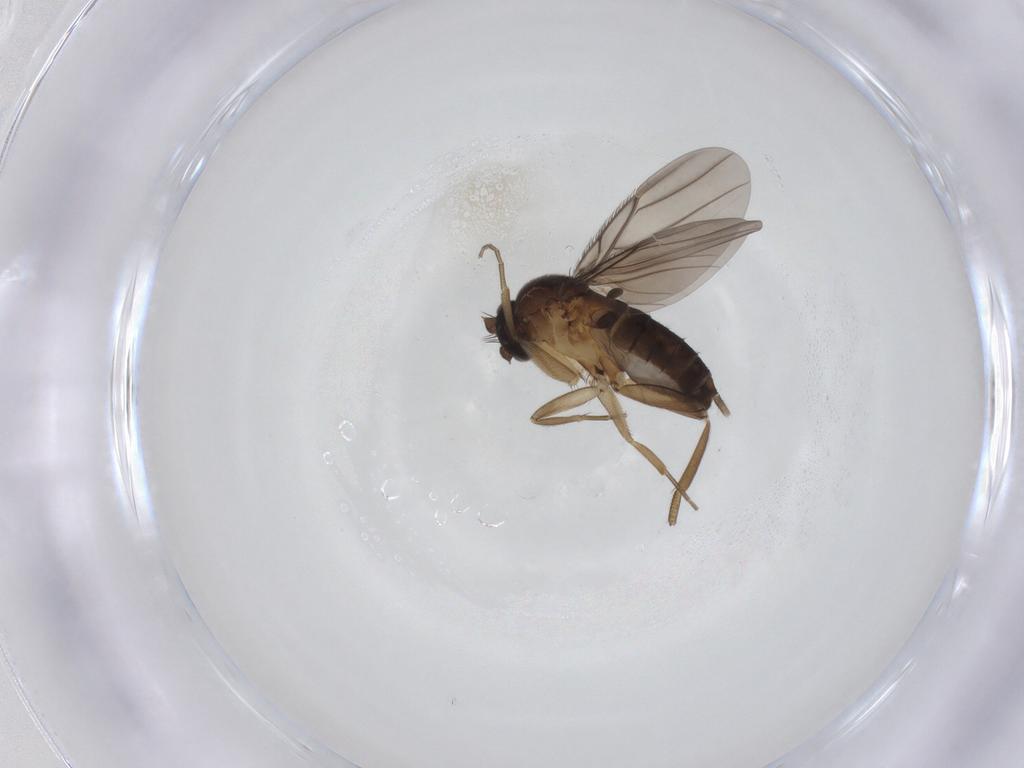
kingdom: Animalia
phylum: Arthropoda
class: Insecta
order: Diptera
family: Phoridae
